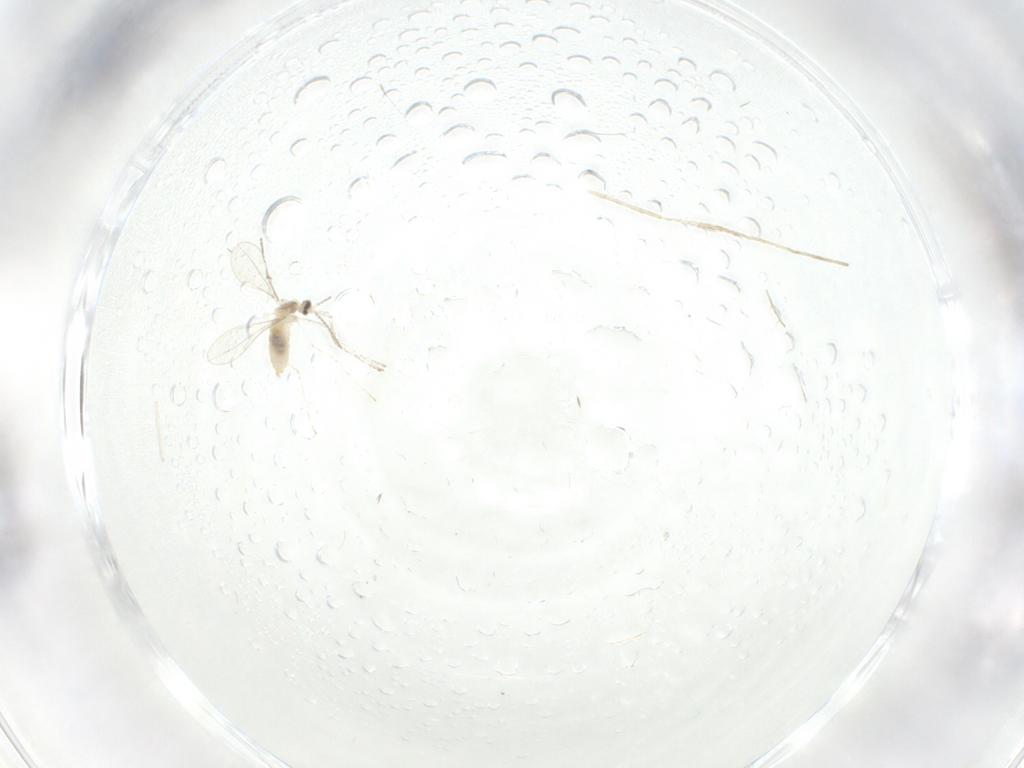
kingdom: Animalia
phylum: Arthropoda
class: Insecta
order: Diptera
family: Cecidomyiidae
